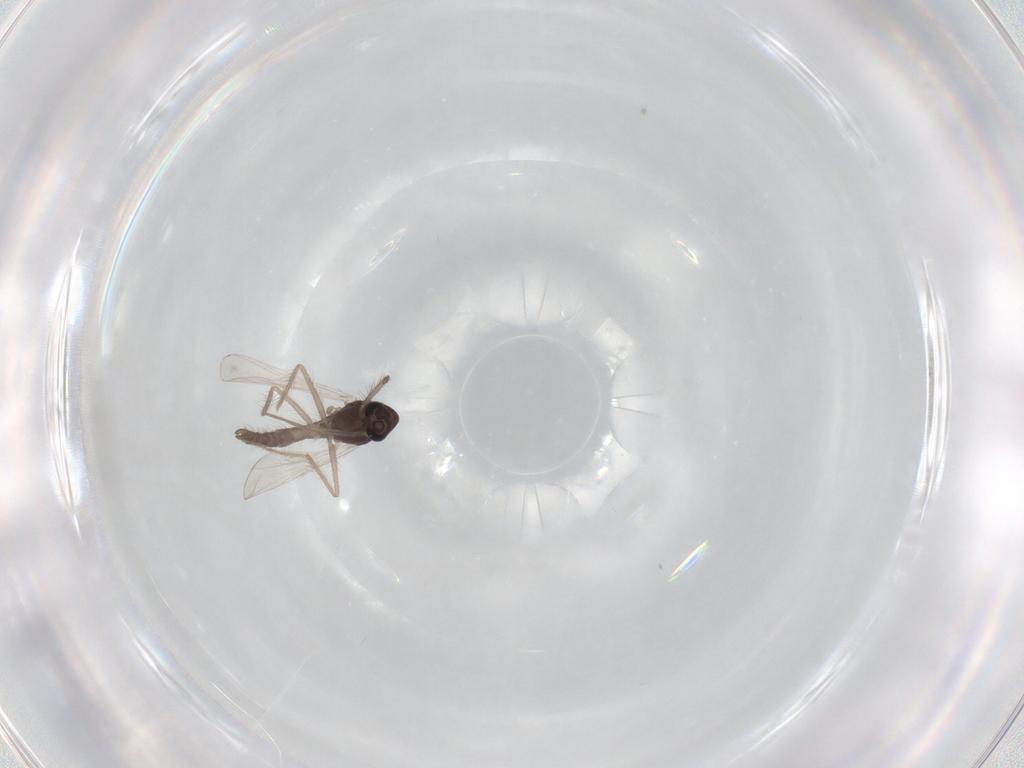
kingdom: Animalia
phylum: Arthropoda
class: Insecta
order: Diptera
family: Chironomidae
